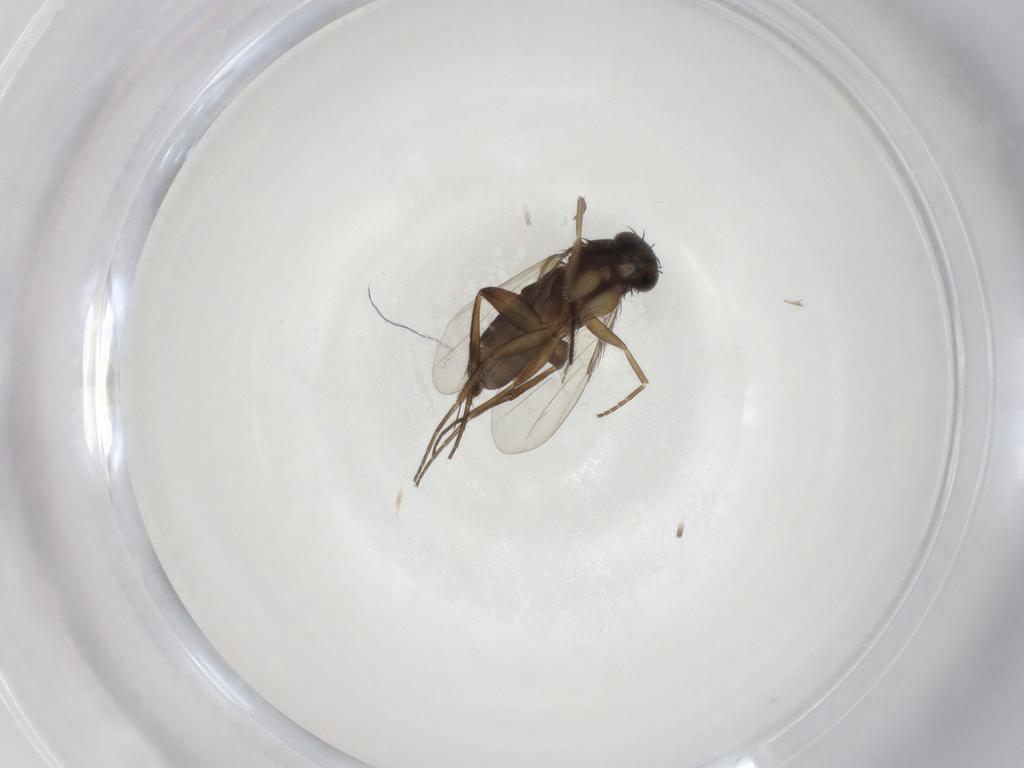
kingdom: Animalia
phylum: Arthropoda
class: Insecta
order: Diptera
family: Phoridae
